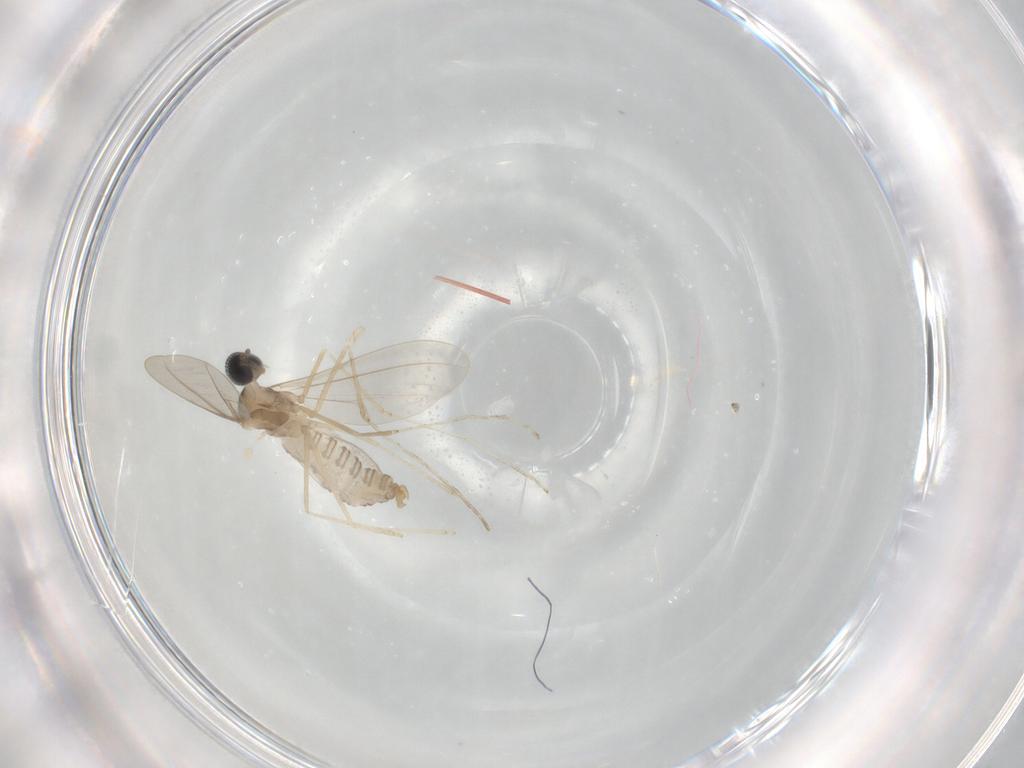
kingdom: Animalia
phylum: Arthropoda
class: Insecta
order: Diptera
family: Cecidomyiidae
